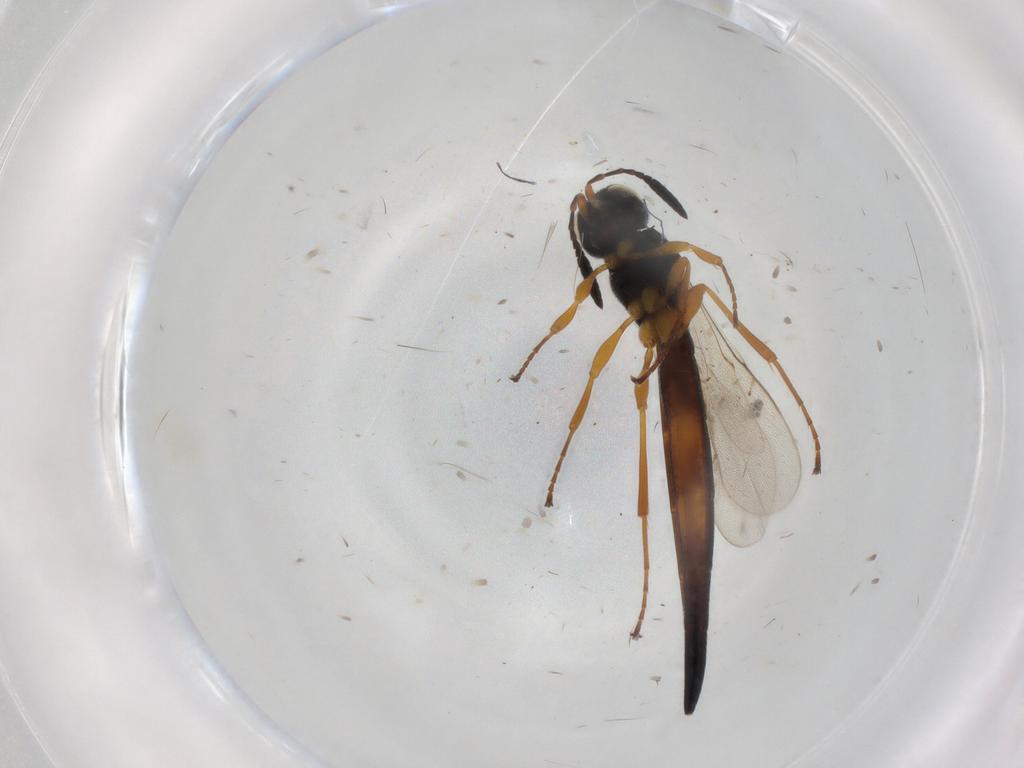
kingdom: Animalia
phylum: Arthropoda
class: Insecta
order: Hymenoptera
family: Scelionidae
